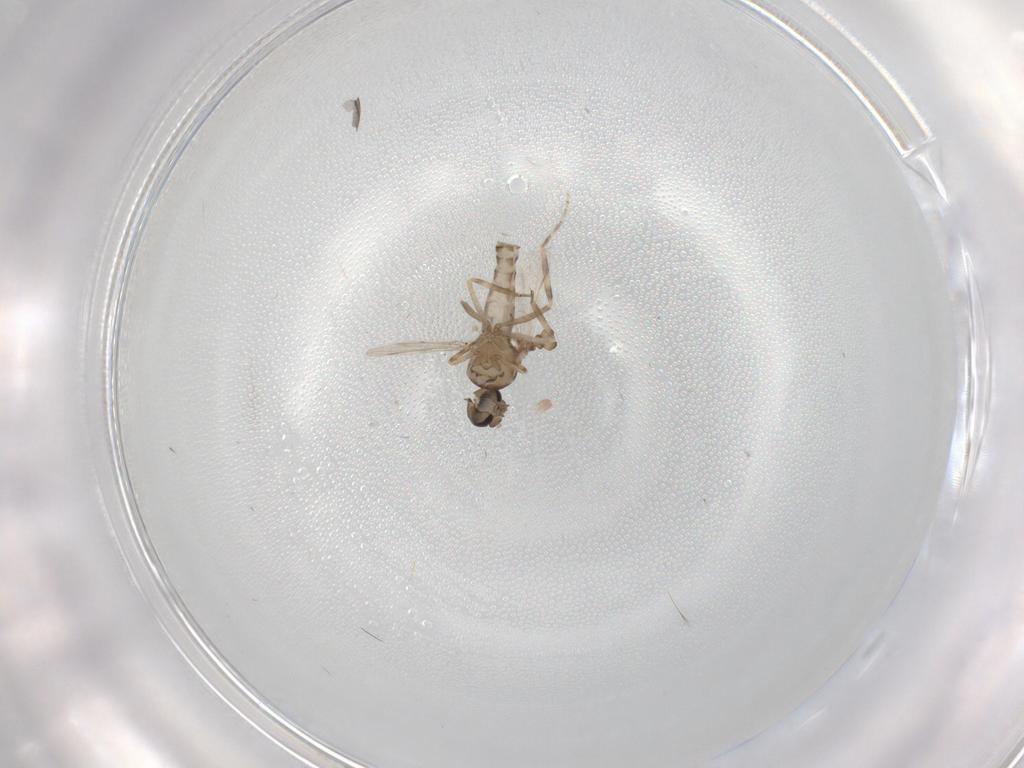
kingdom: Animalia
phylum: Arthropoda
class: Insecta
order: Diptera
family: Ceratopogonidae
